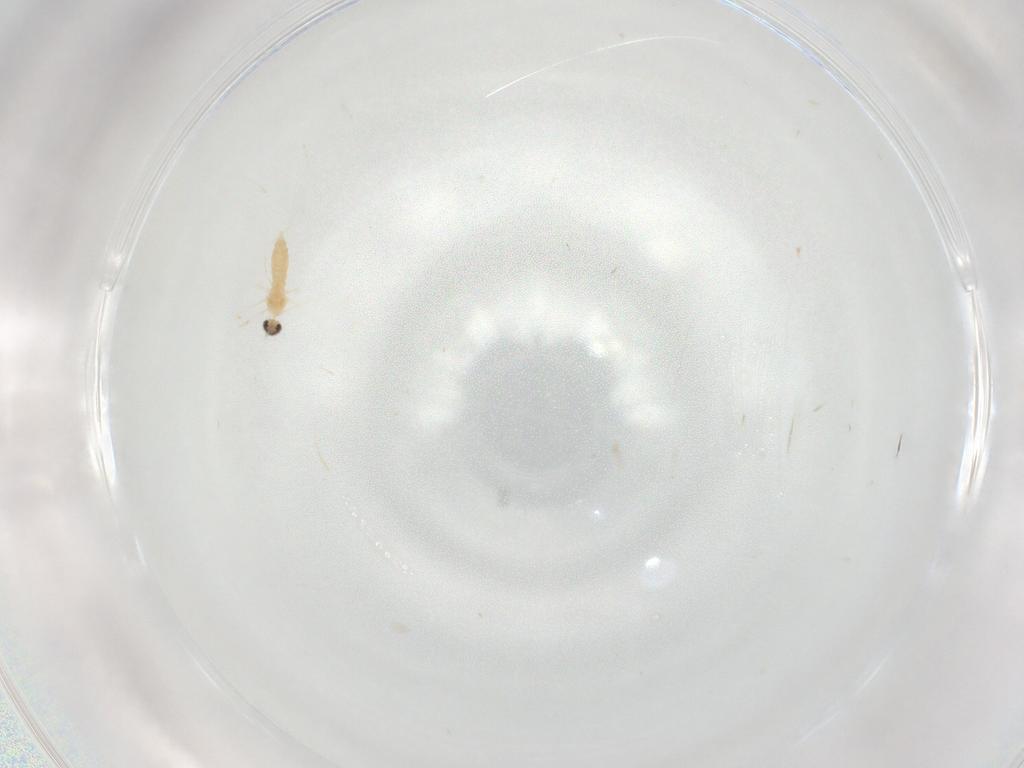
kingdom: Animalia
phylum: Arthropoda
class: Insecta
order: Diptera
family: Cecidomyiidae
